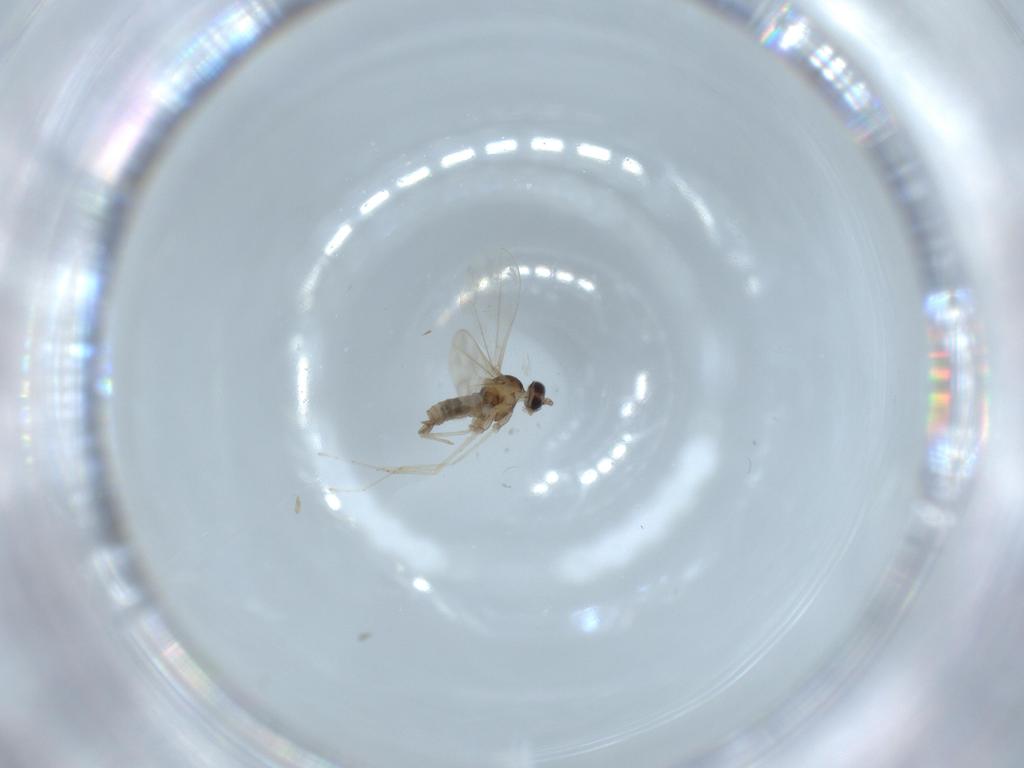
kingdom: Animalia
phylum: Arthropoda
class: Insecta
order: Diptera
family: Cecidomyiidae
